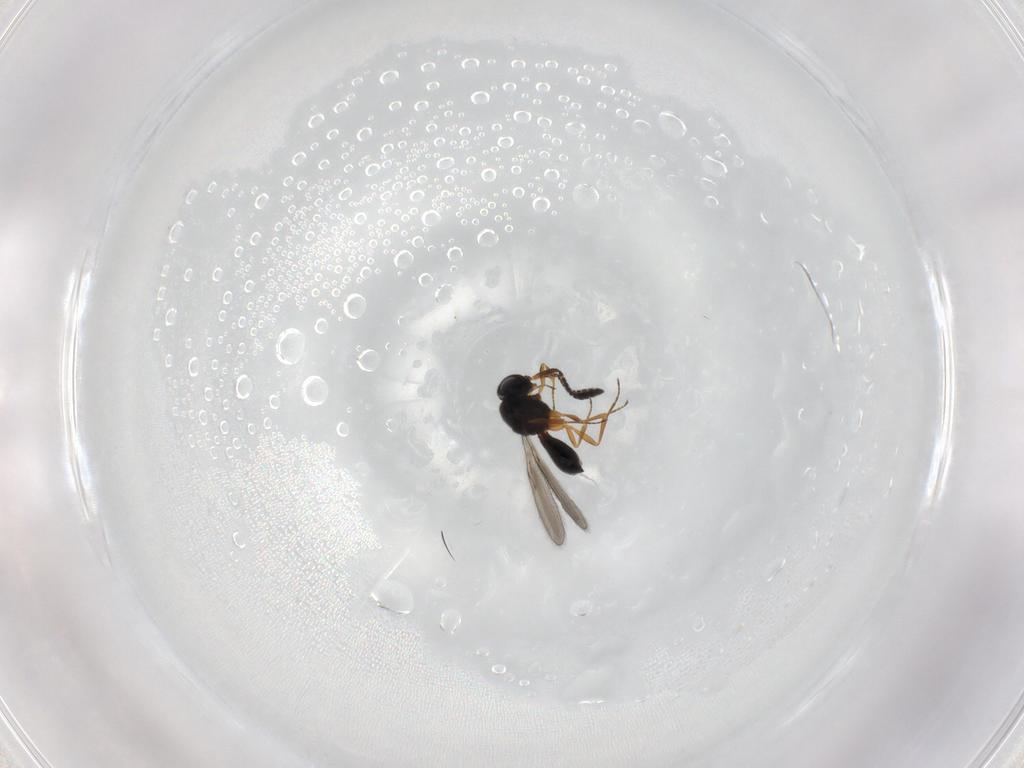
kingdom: Animalia
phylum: Arthropoda
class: Insecta
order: Hymenoptera
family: Scelionidae
